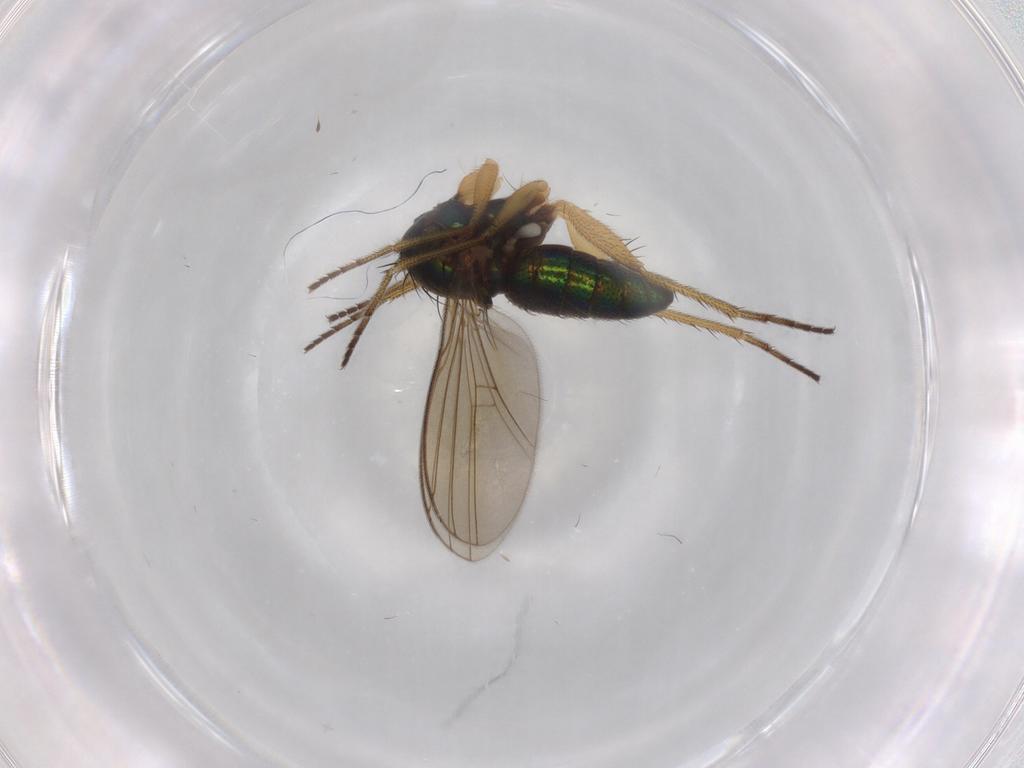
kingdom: Animalia
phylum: Arthropoda
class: Insecta
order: Diptera
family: Dolichopodidae
